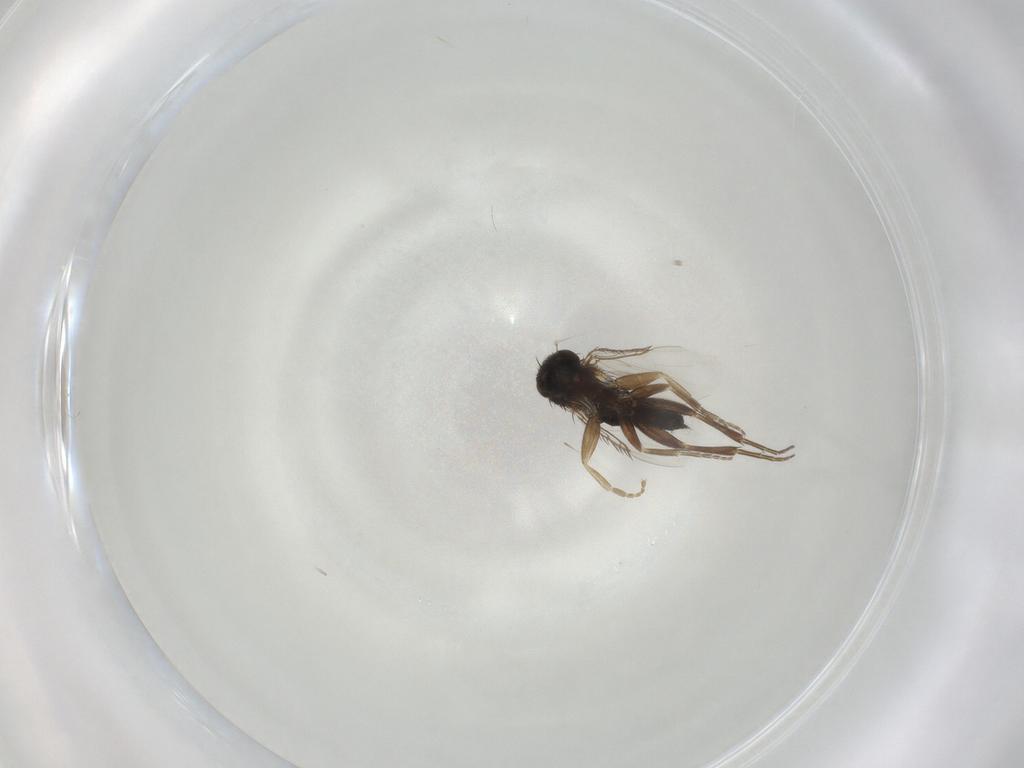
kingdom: Animalia
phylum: Arthropoda
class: Insecta
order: Diptera
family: Phoridae
